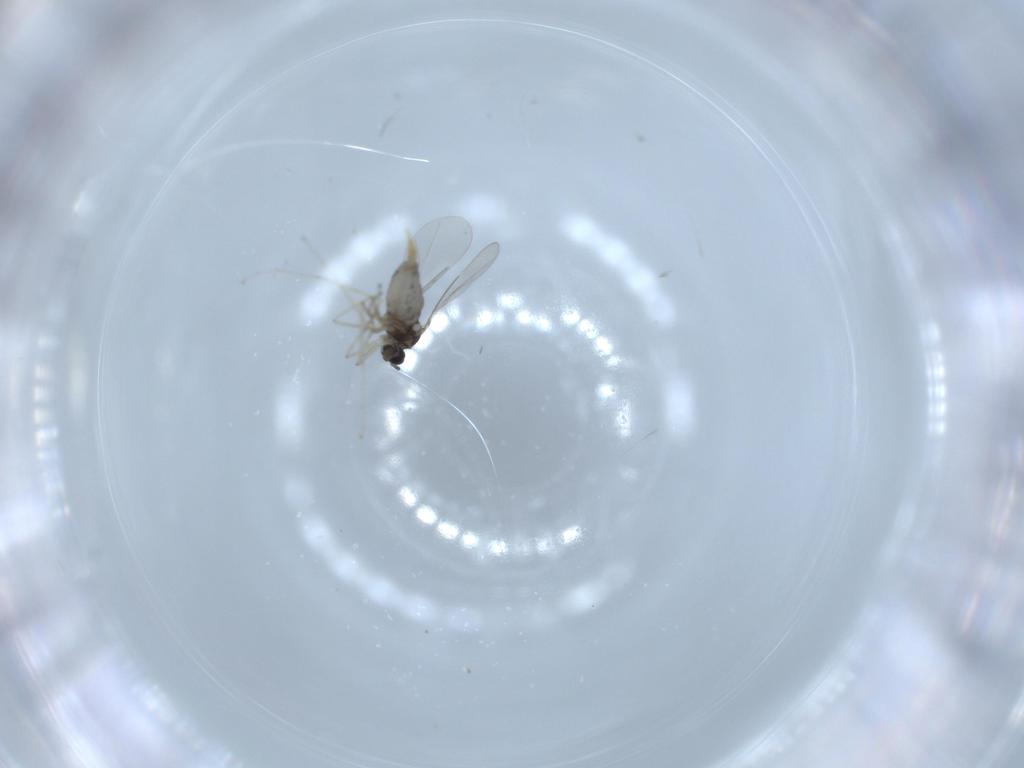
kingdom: Animalia
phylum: Arthropoda
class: Insecta
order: Diptera
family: Cecidomyiidae
